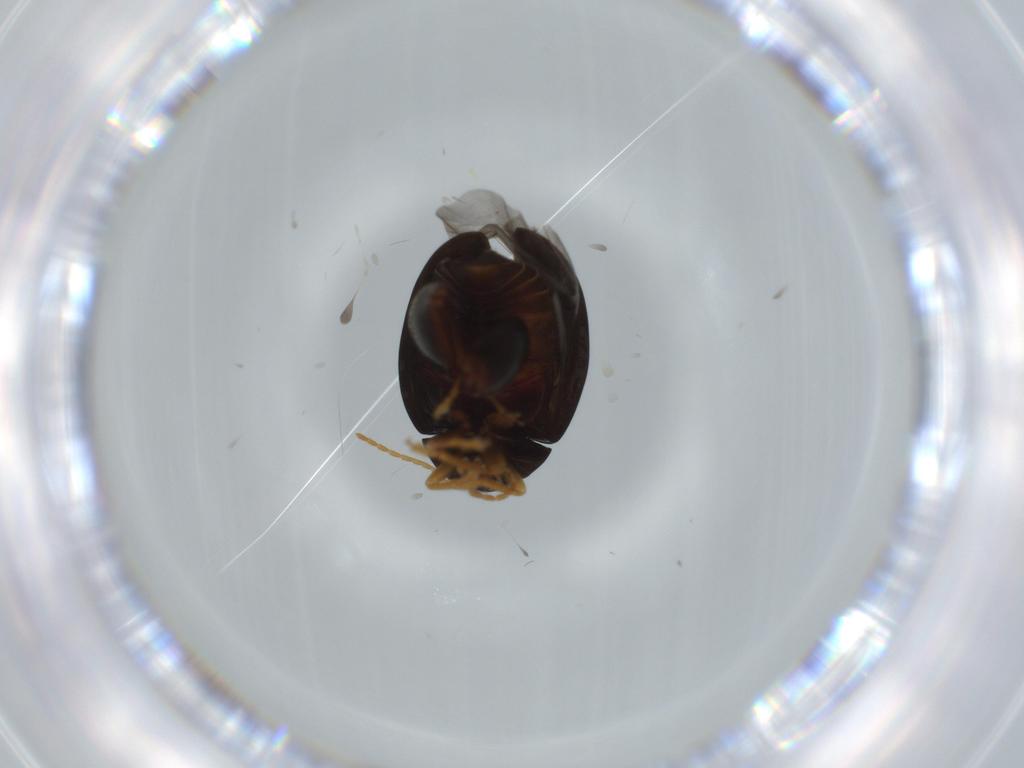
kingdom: Animalia
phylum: Arthropoda
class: Insecta
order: Coleoptera
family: Chrysomelidae
